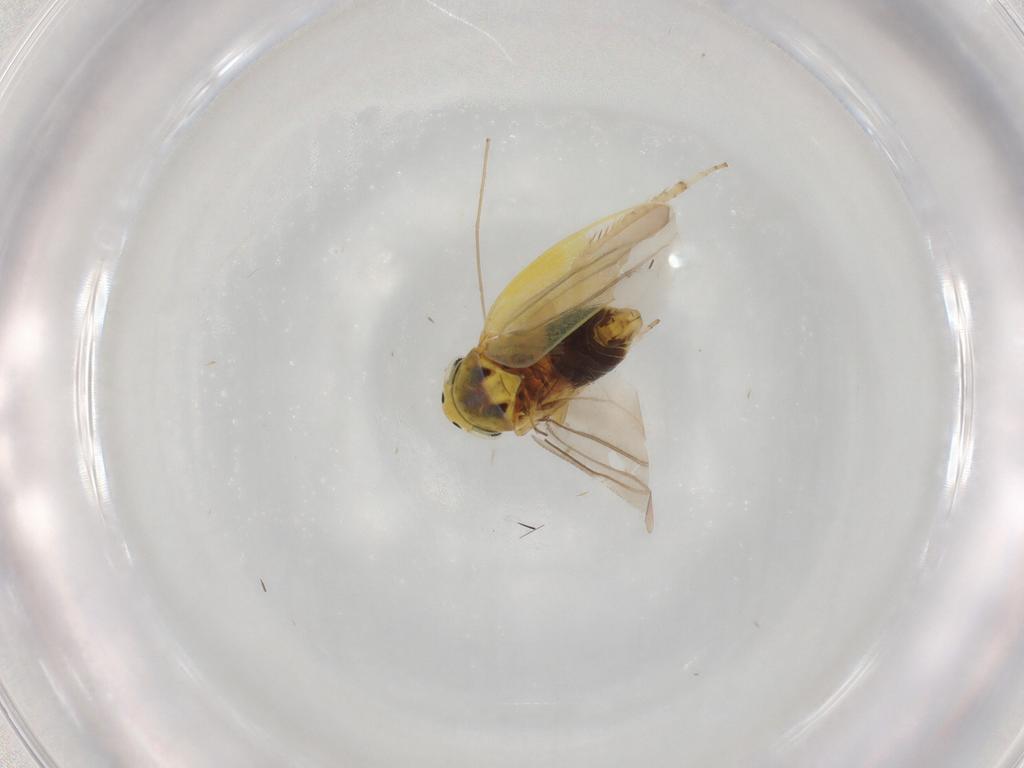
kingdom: Animalia
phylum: Arthropoda
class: Insecta
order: Hemiptera
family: Cicadellidae
